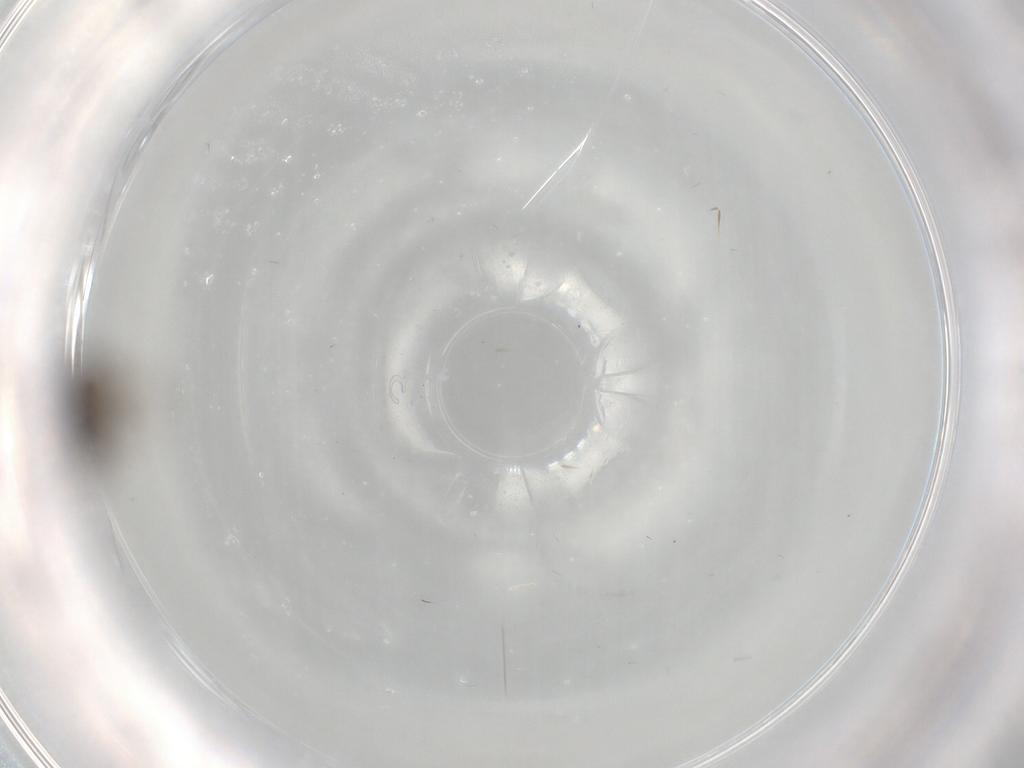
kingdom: Animalia
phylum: Arthropoda
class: Insecta
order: Diptera
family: Phoridae
